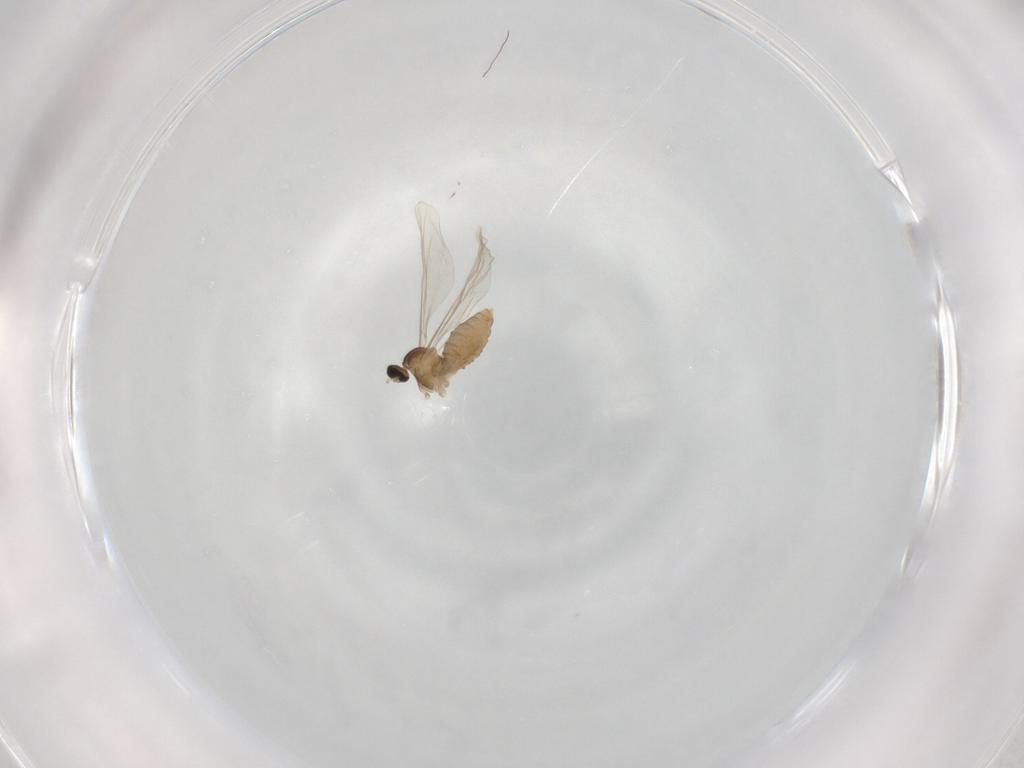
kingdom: Animalia
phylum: Arthropoda
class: Insecta
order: Diptera
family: Cecidomyiidae
